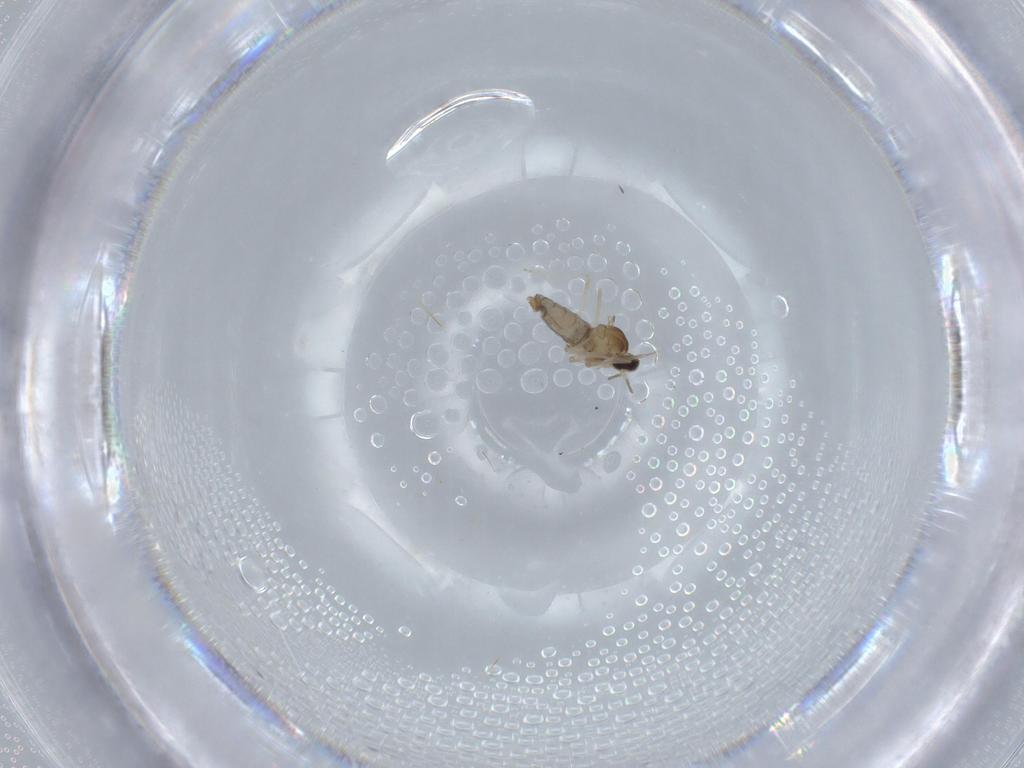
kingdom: Animalia
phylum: Arthropoda
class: Insecta
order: Diptera
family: Cecidomyiidae
